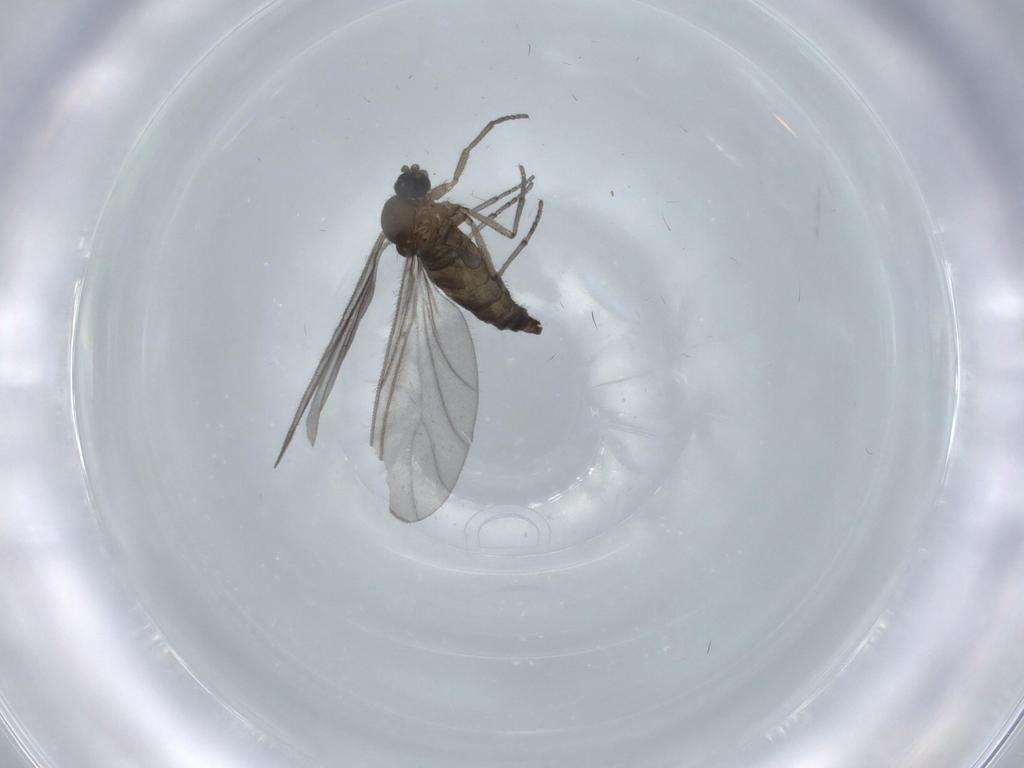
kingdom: Animalia
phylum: Arthropoda
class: Insecta
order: Diptera
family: Sciaridae
